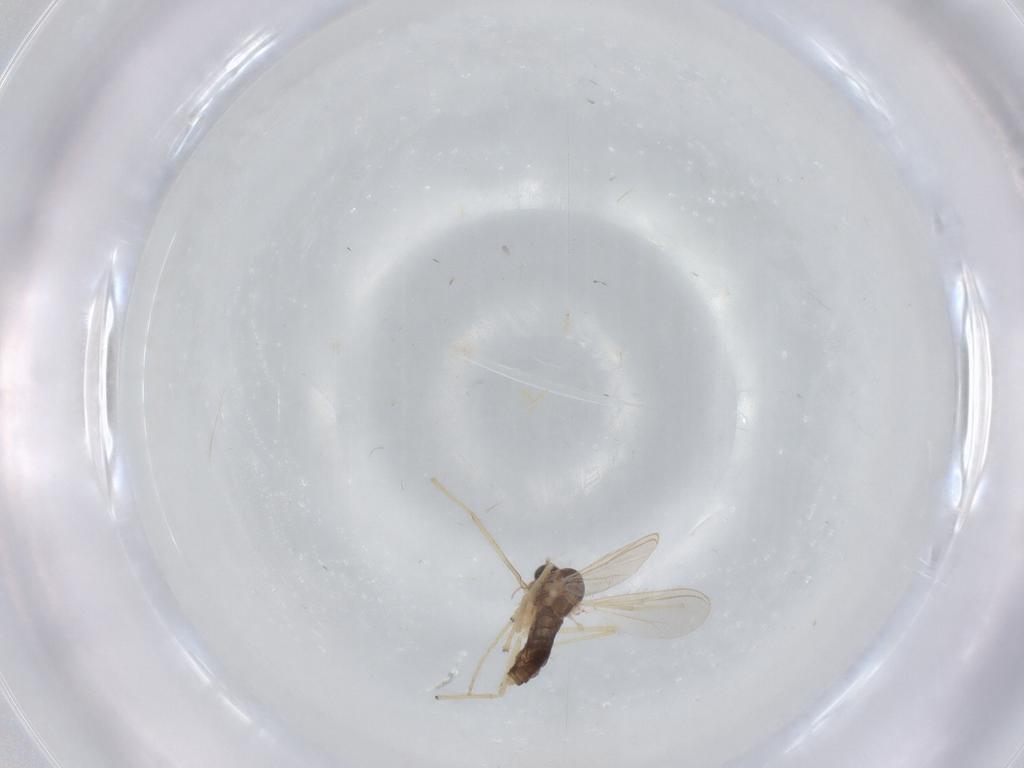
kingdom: Animalia
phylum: Arthropoda
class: Insecta
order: Diptera
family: Chironomidae
